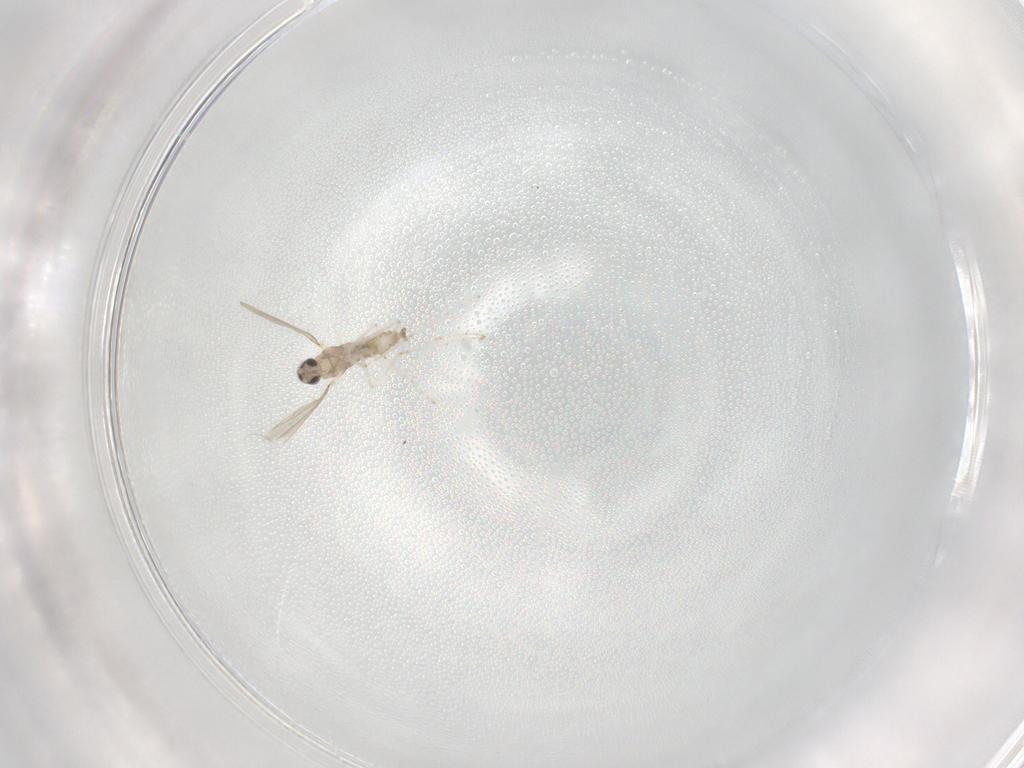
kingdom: Animalia
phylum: Arthropoda
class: Insecta
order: Diptera
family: Cecidomyiidae
